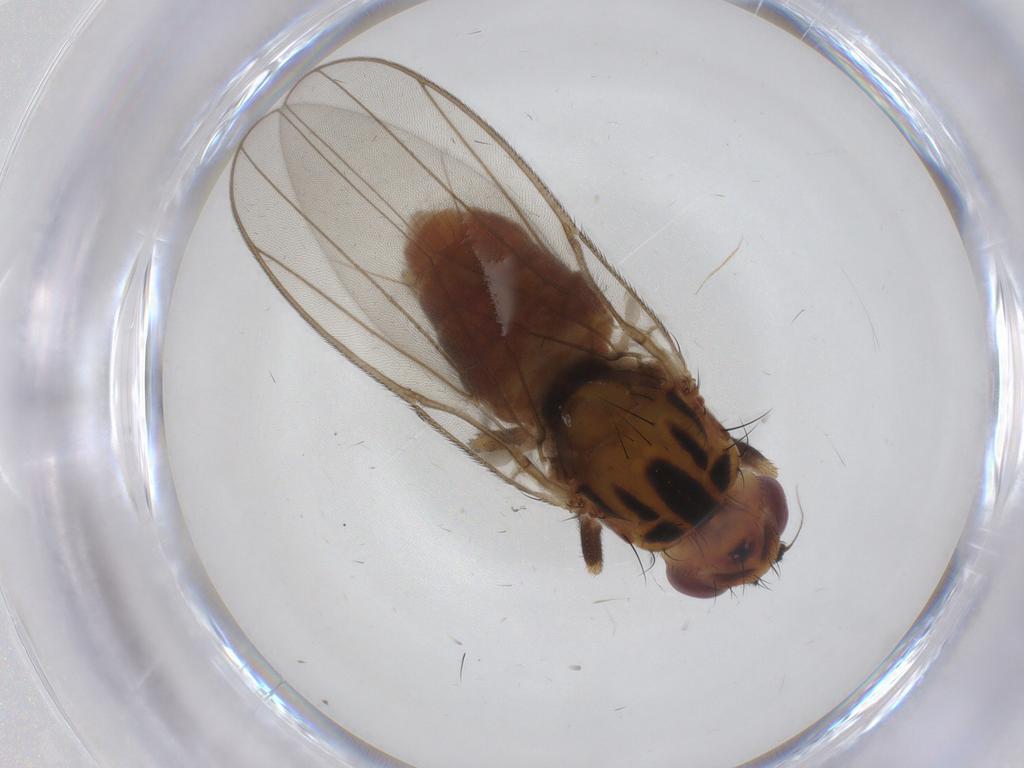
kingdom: Animalia
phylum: Arthropoda
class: Insecta
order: Diptera
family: Chloropidae
